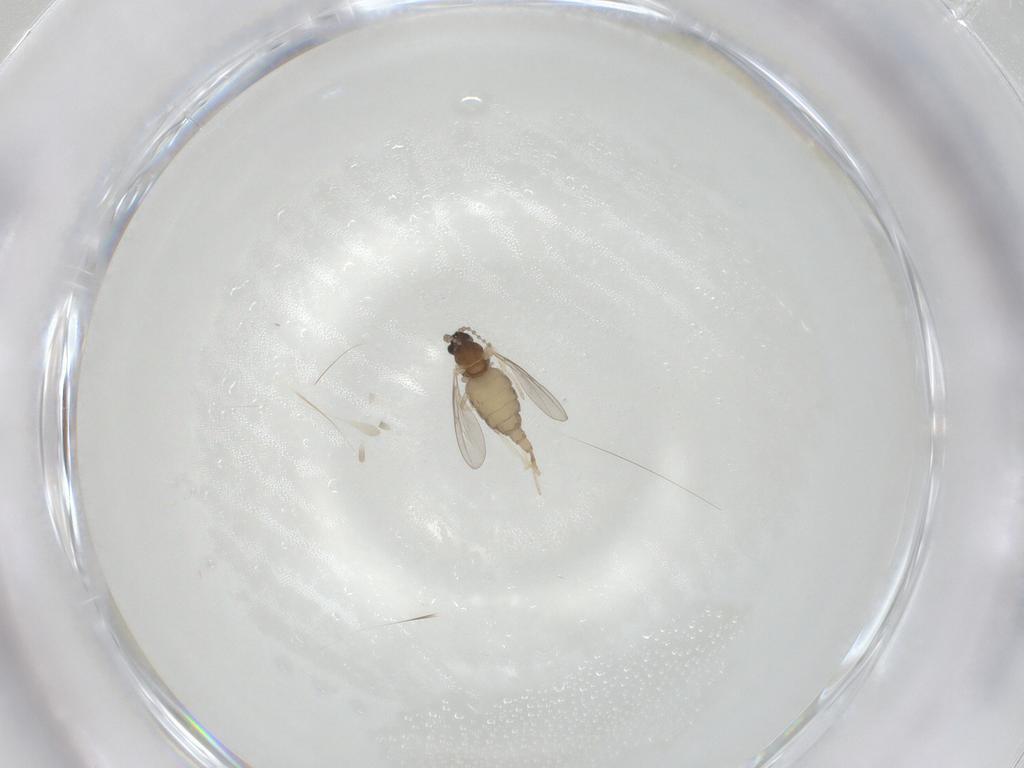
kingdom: Animalia
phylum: Arthropoda
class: Insecta
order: Diptera
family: Cecidomyiidae
